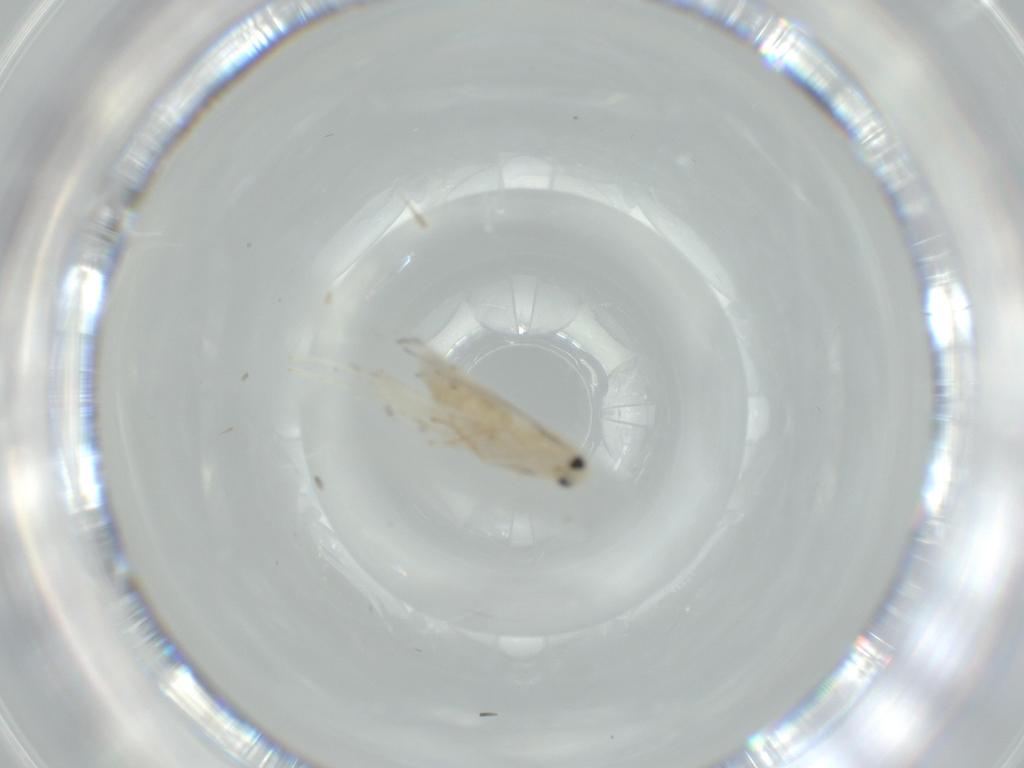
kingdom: Animalia
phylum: Arthropoda
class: Insecta
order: Lepidoptera
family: Gracillariidae
